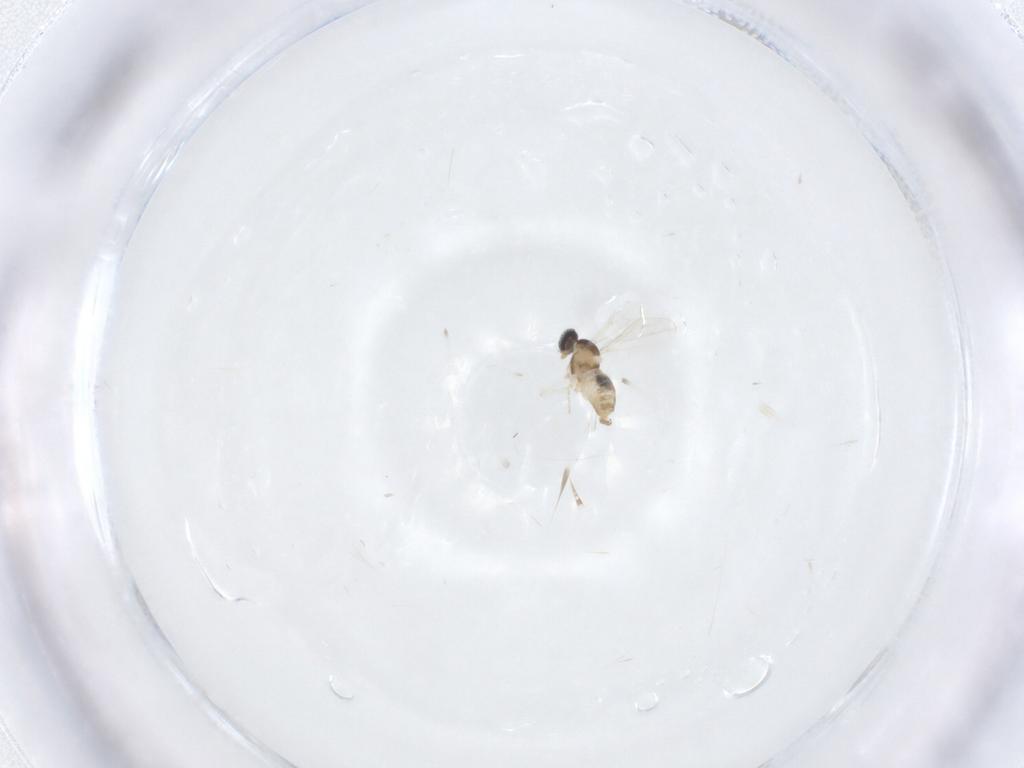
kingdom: Animalia
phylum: Arthropoda
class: Insecta
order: Diptera
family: Cecidomyiidae
